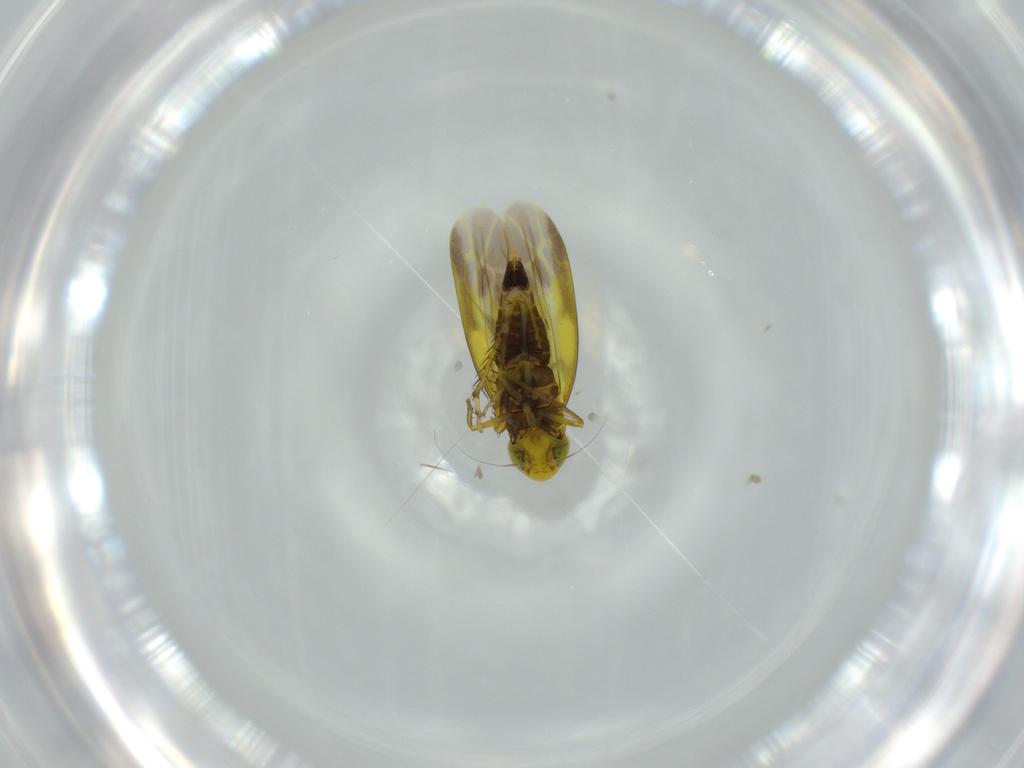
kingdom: Animalia
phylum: Arthropoda
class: Insecta
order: Hemiptera
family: Cicadellidae
